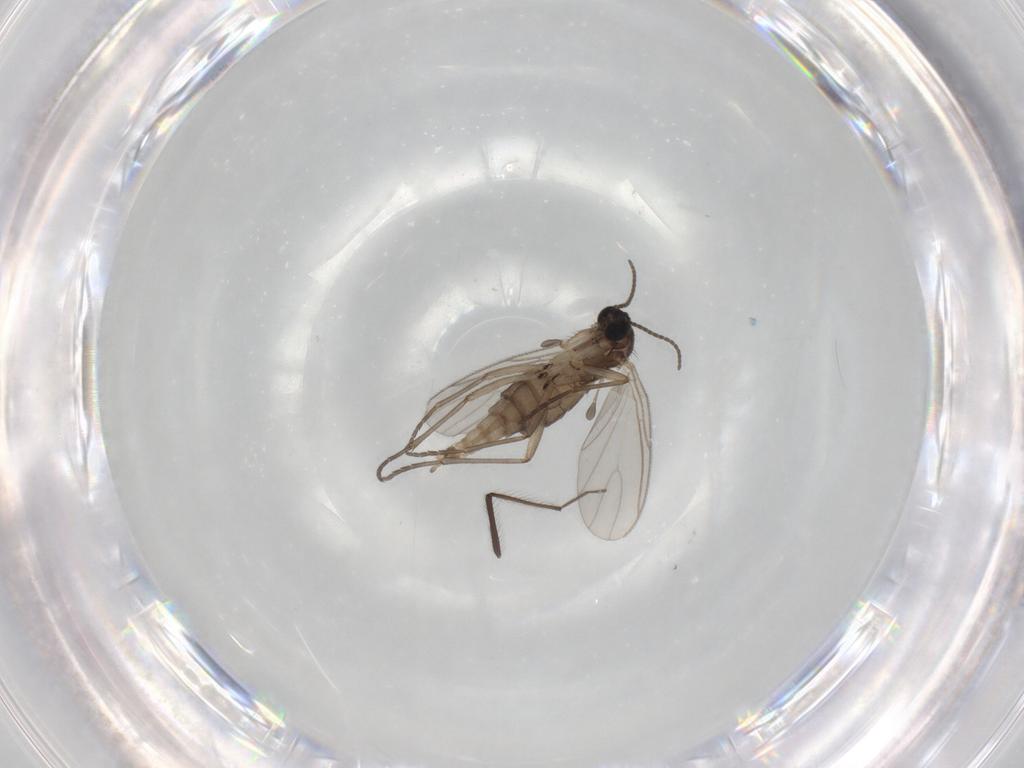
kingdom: Animalia
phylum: Arthropoda
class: Insecta
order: Diptera
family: Sciaridae
